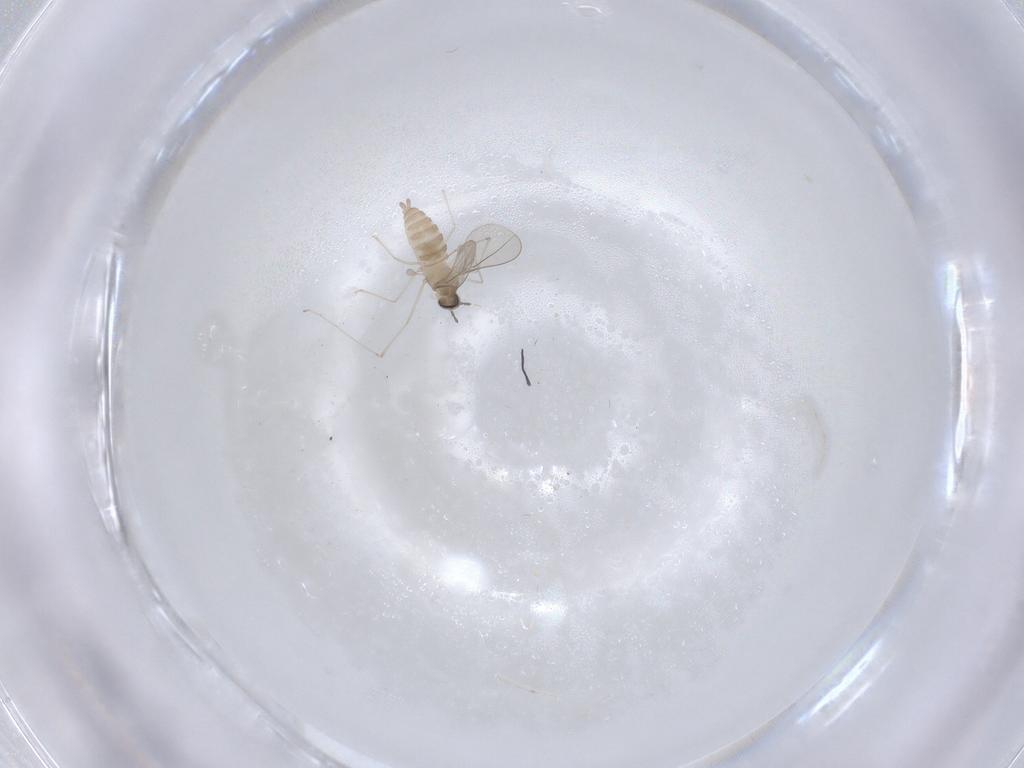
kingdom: Animalia
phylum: Arthropoda
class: Insecta
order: Diptera
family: Cecidomyiidae
